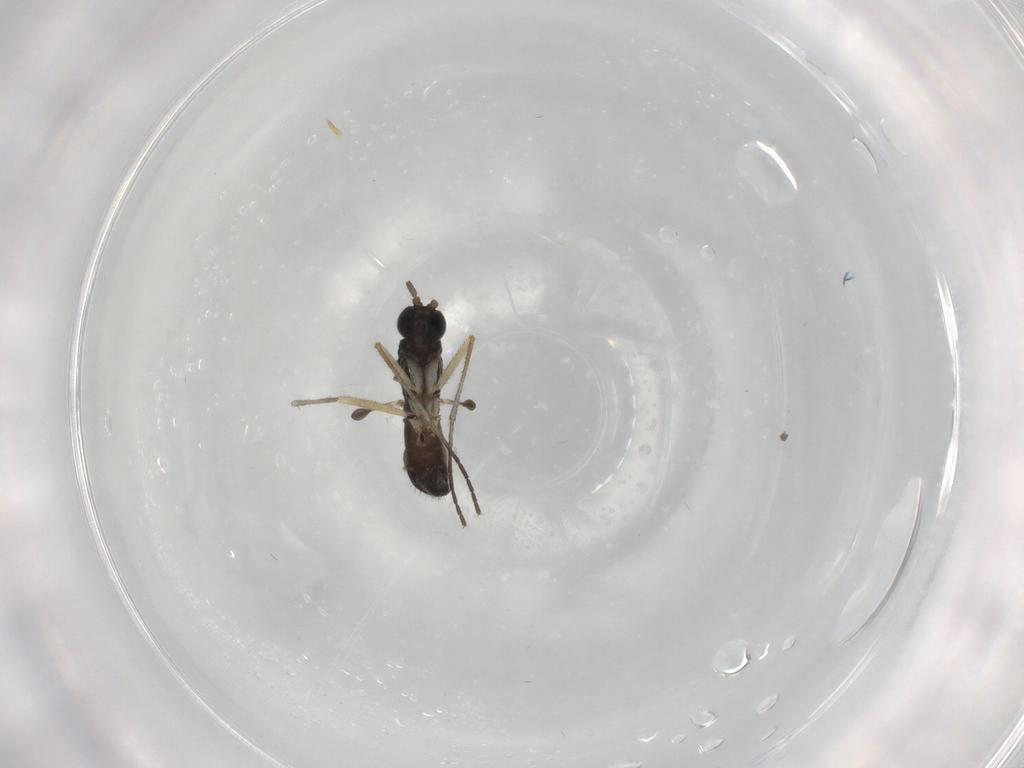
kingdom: Animalia
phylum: Arthropoda
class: Insecta
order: Diptera
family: Sciaridae
